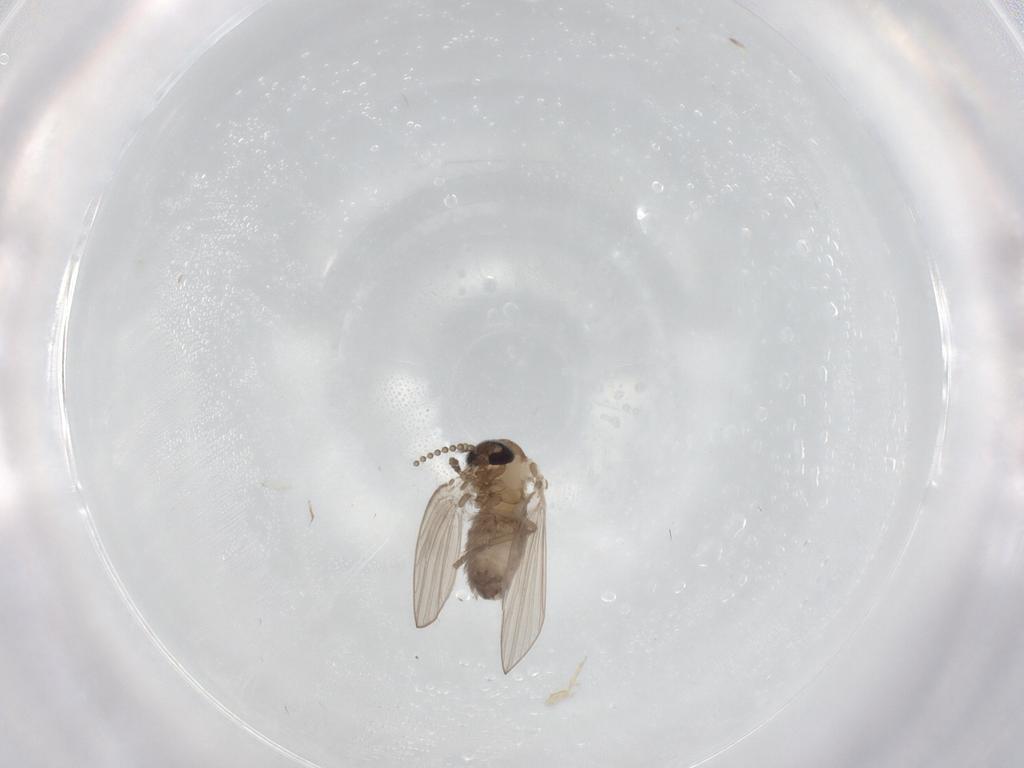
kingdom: Animalia
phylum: Arthropoda
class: Insecta
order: Diptera
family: Psychodidae
